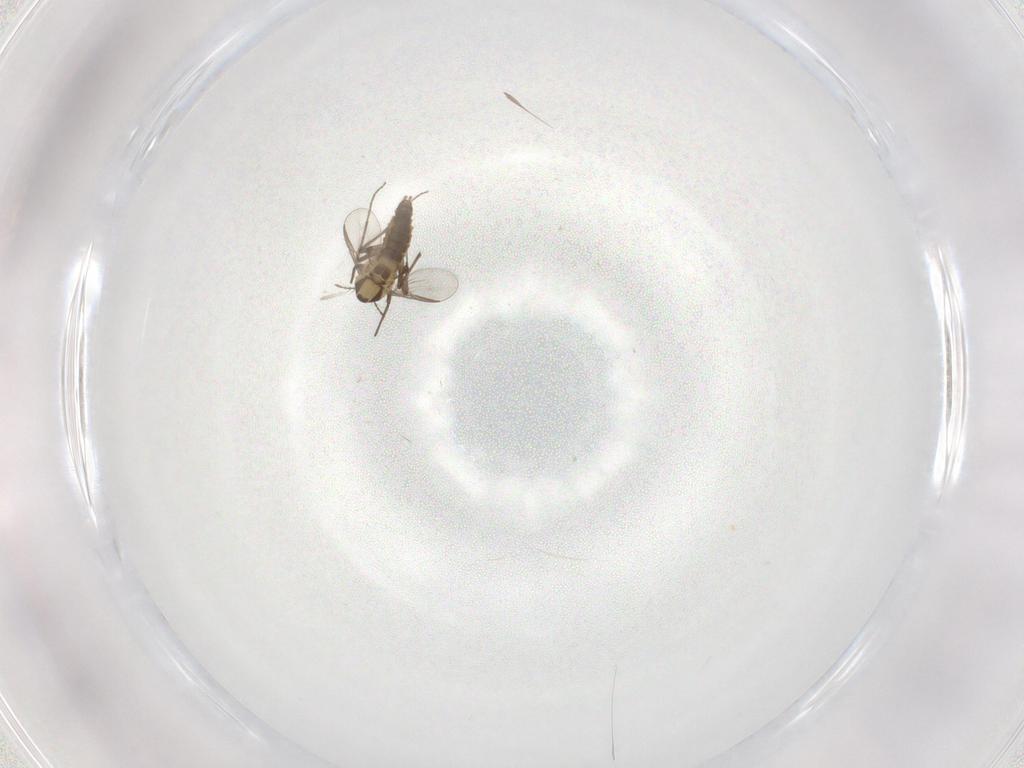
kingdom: Animalia
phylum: Arthropoda
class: Insecta
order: Diptera
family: Chironomidae
